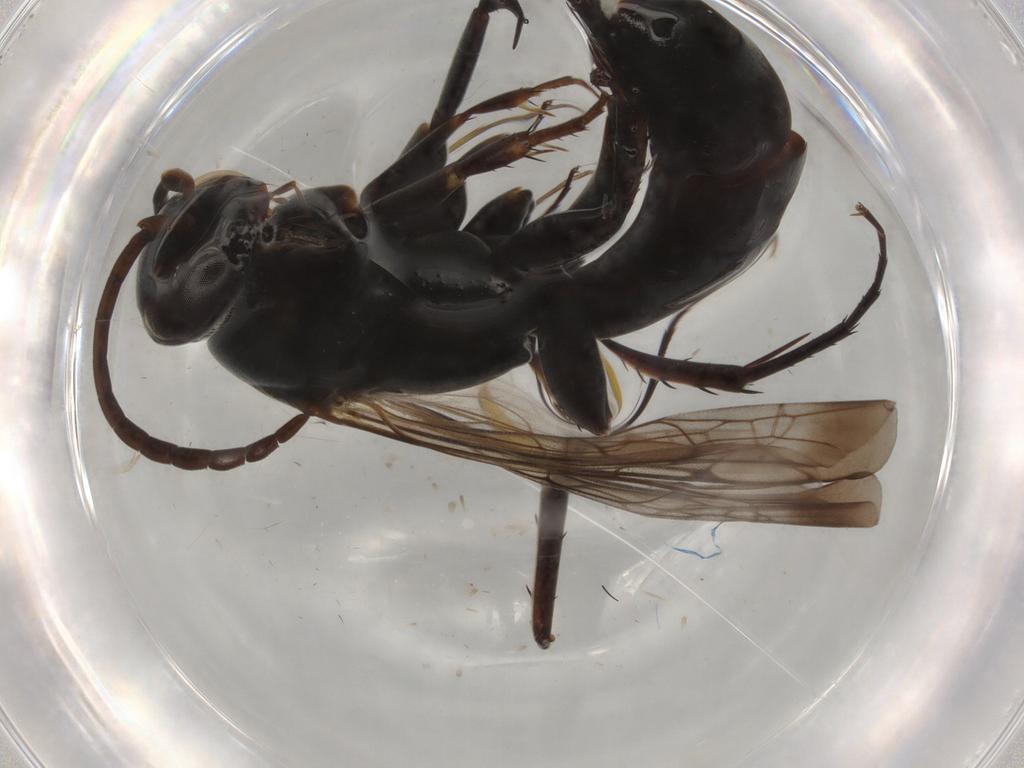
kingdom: Animalia
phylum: Arthropoda
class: Insecta
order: Hymenoptera
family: Pompilidae
